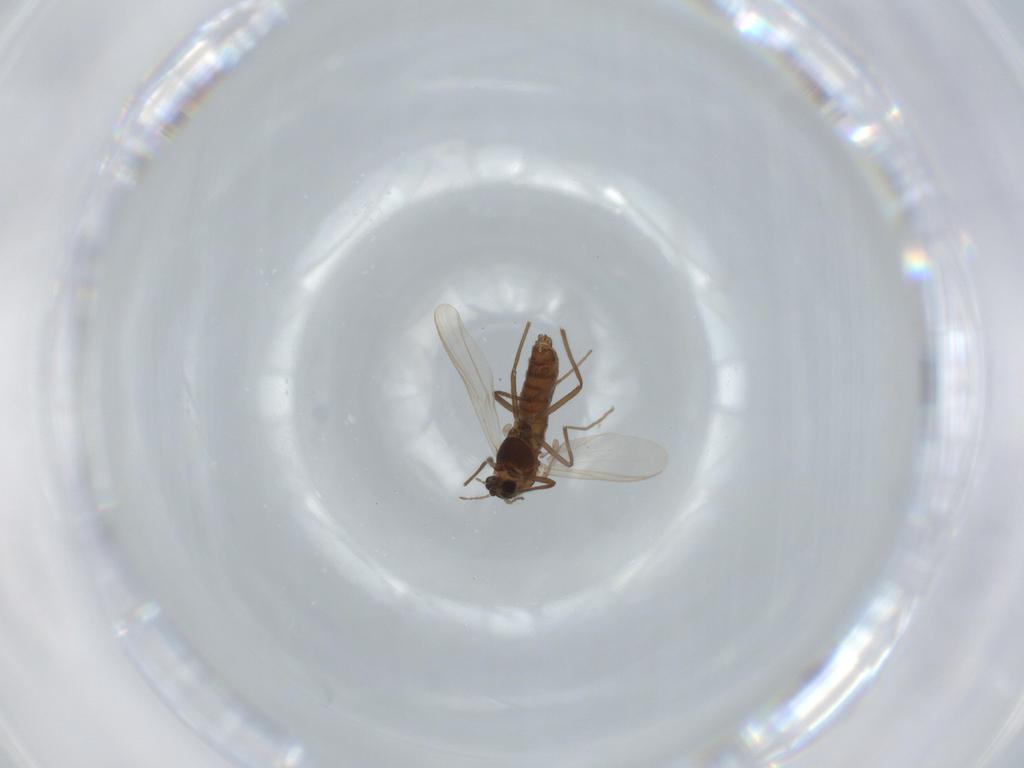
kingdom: Animalia
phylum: Arthropoda
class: Insecta
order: Diptera
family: Chironomidae
